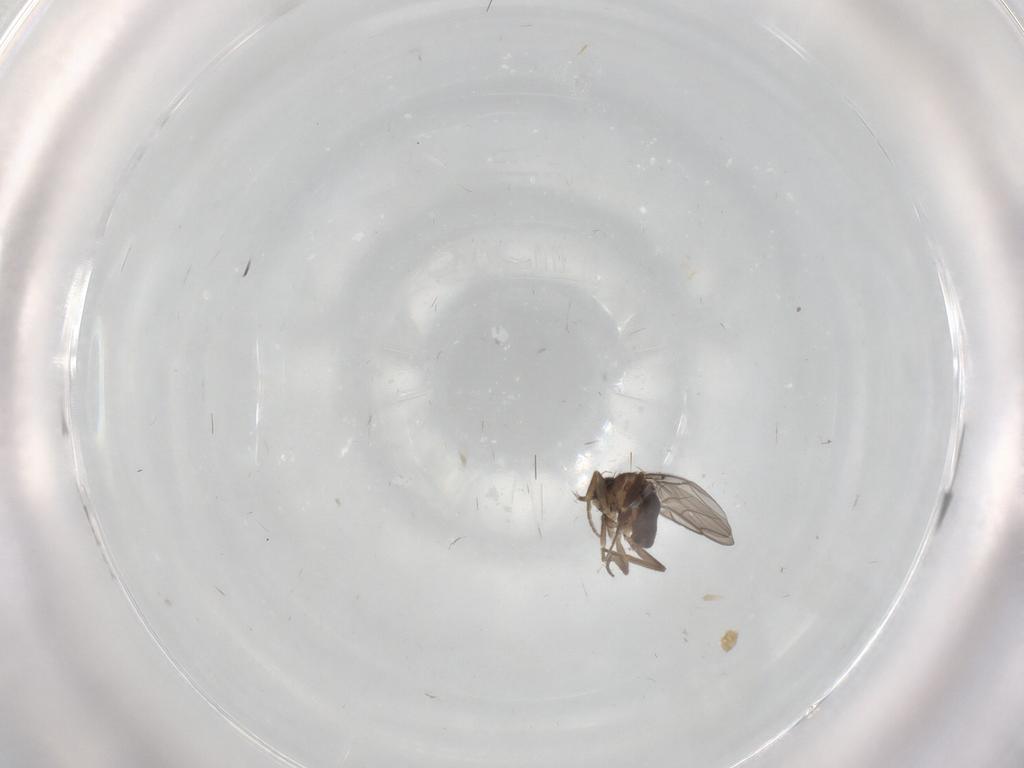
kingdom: Animalia
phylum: Arthropoda
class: Insecta
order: Diptera
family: Phoridae
